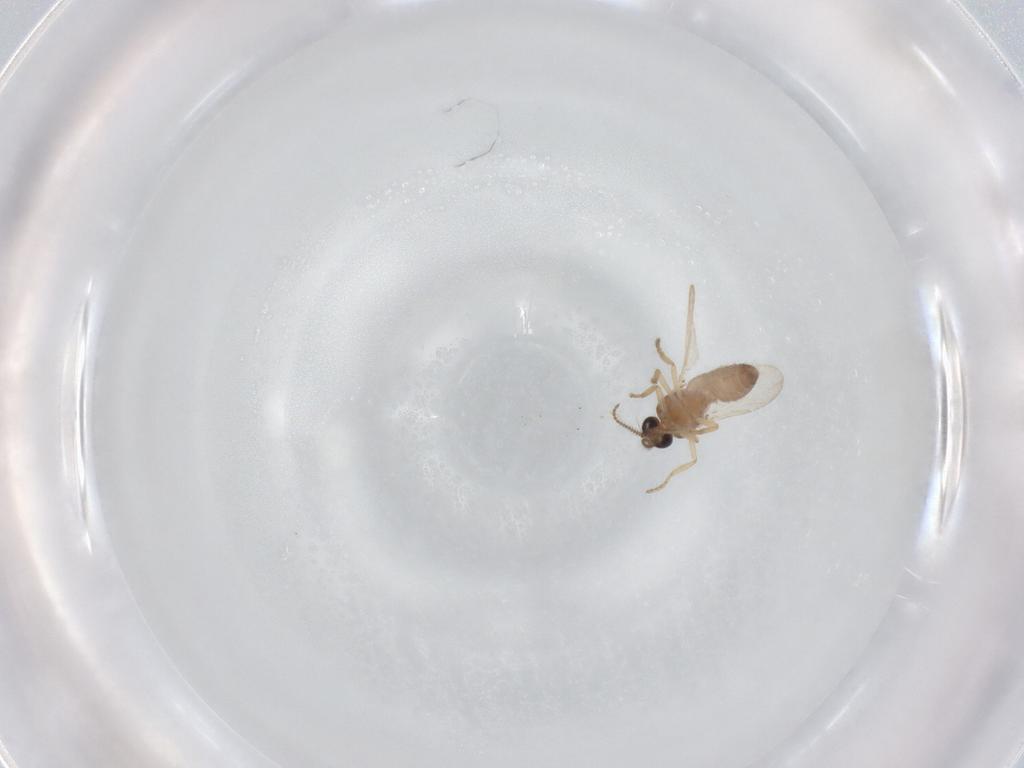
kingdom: Animalia
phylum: Arthropoda
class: Insecta
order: Diptera
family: Ceratopogonidae
